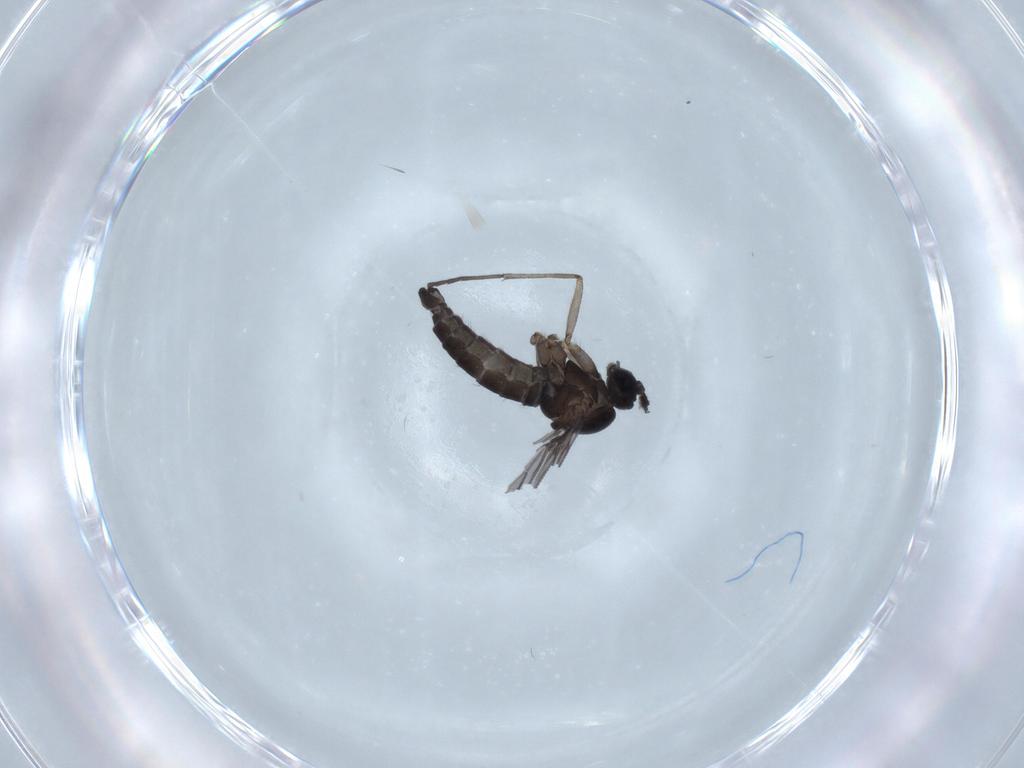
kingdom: Animalia
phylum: Arthropoda
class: Insecta
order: Diptera
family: Sciaridae
